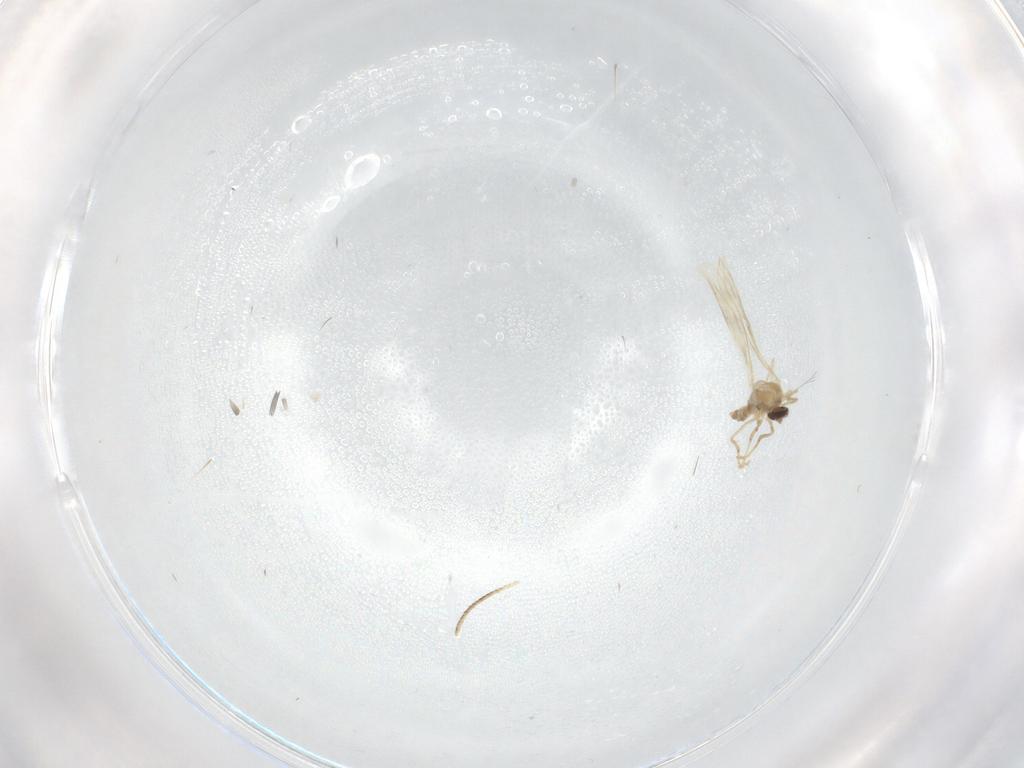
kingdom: Animalia
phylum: Arthropoda
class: Insecta
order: Diptera
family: Cecidomyiidae
